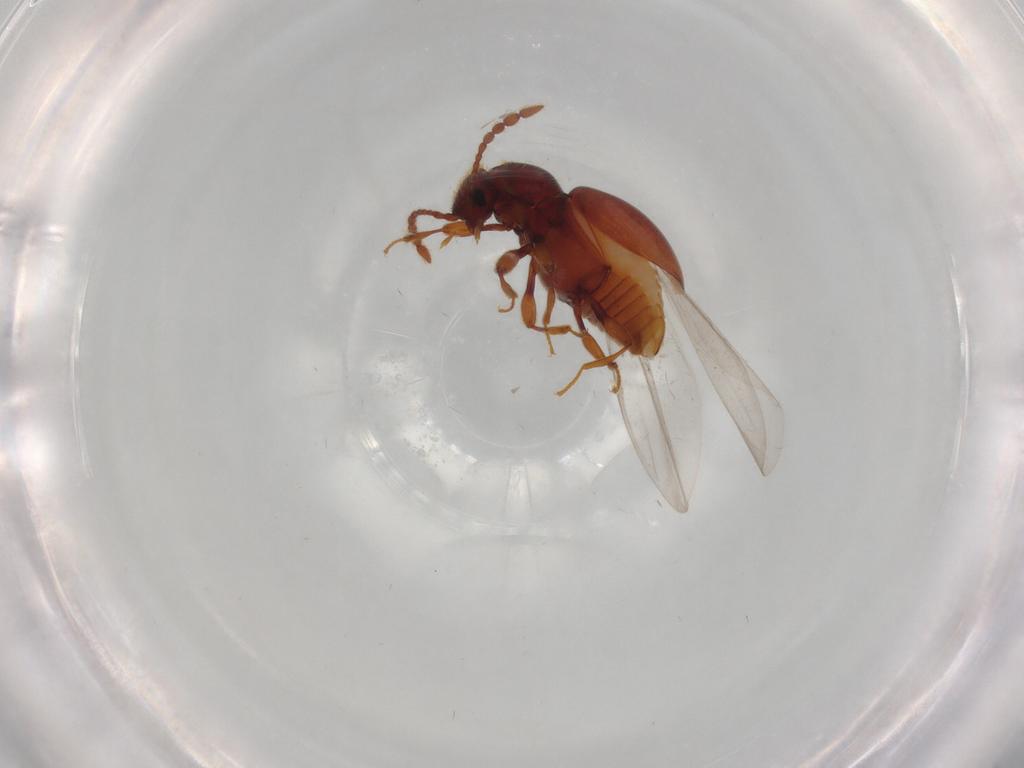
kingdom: Animalia
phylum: Arthropoda
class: Insecta
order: Coleoptera
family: Staphylinidae
